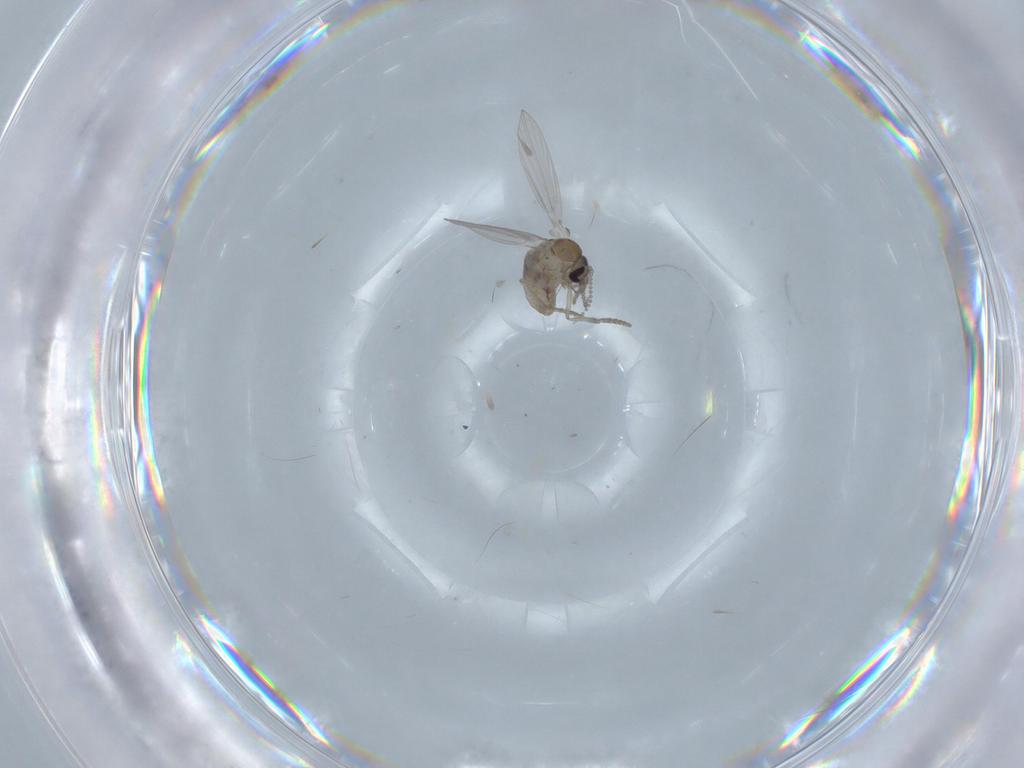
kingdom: Animalia
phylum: Arthropoda
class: Insecta
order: Diptera
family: Psychodidae
